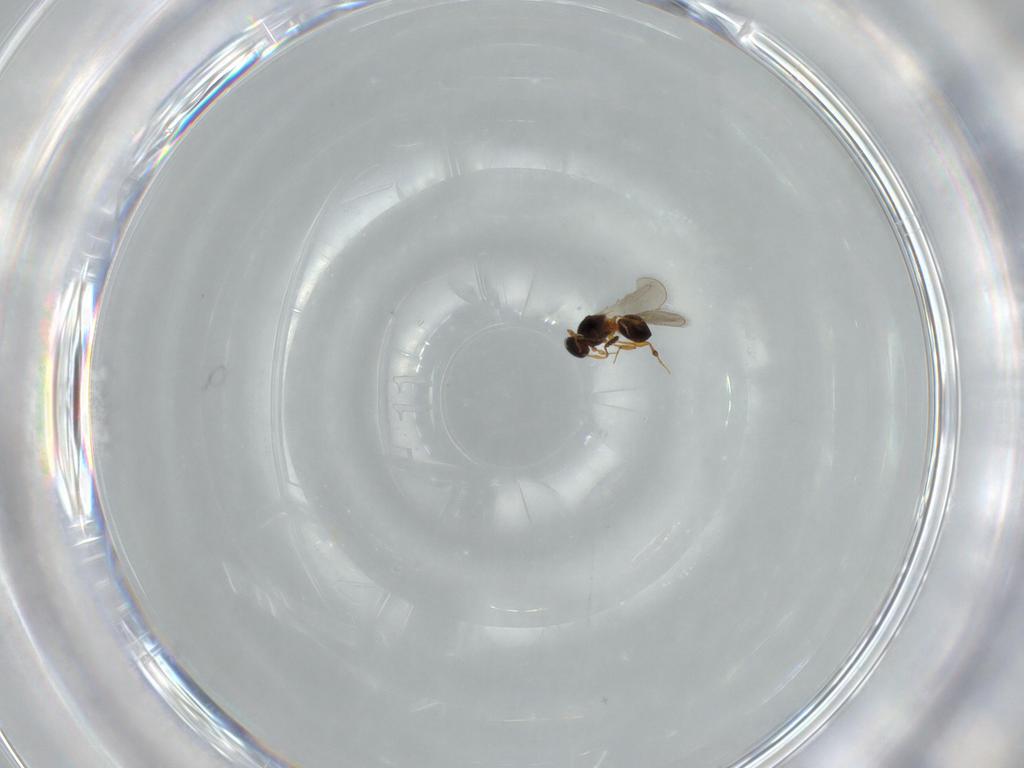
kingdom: Animalia
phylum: Arthropoda
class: Insecta
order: Hymenoptera
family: Platygastridae
